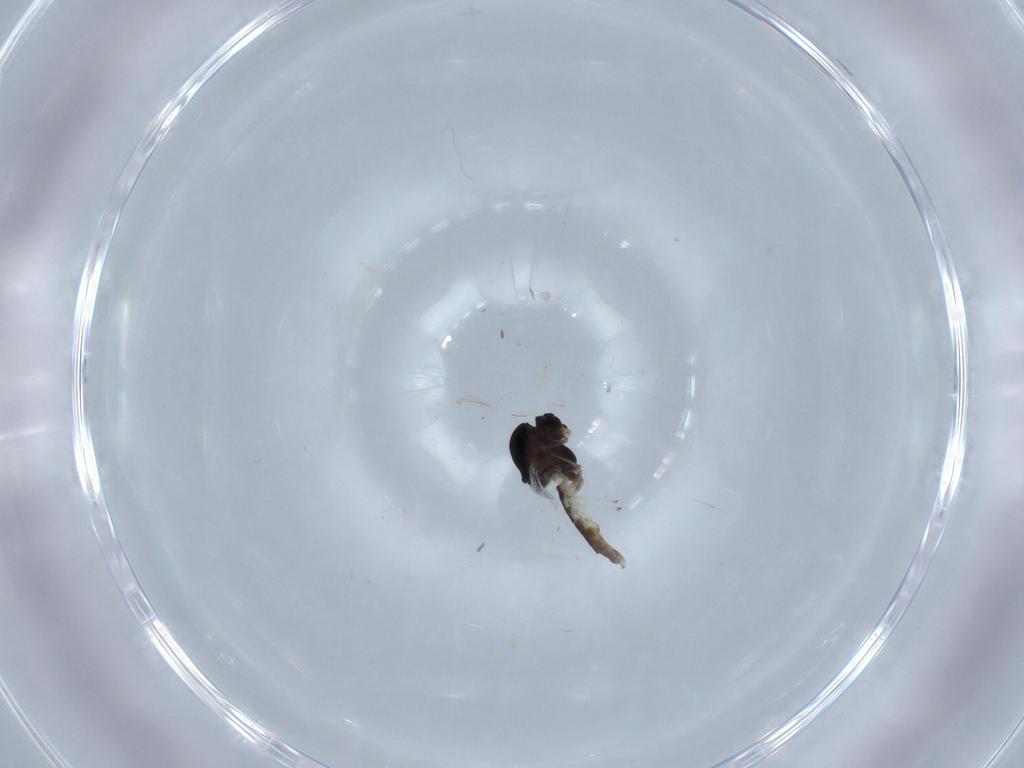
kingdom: Animalia
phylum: Arthropoda
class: Insecta
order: Diptera
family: Chironomidae
